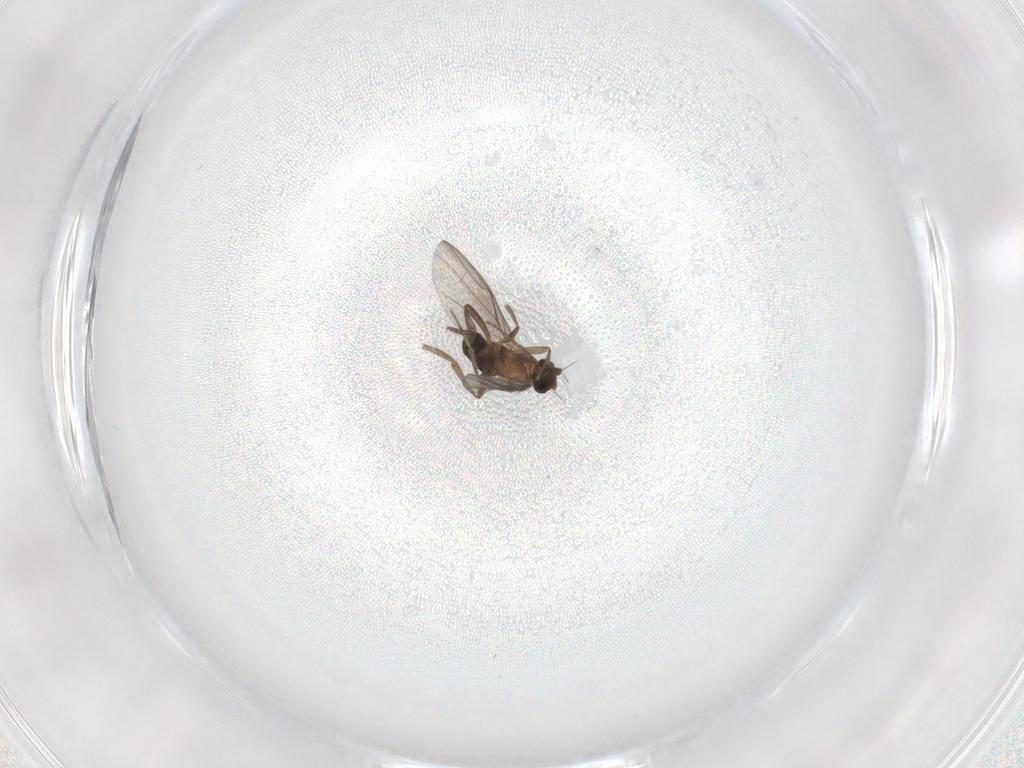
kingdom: Animalia
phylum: Arthropoda
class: Insecta
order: Diptera
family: Cecidomyiidae
